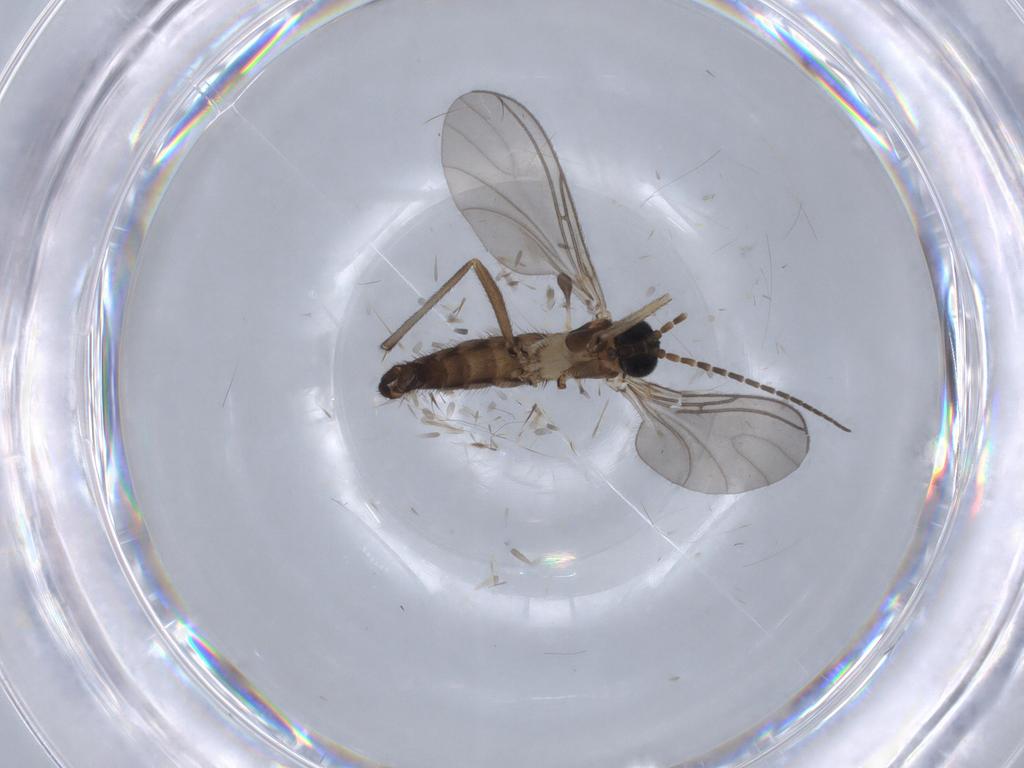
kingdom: Animalia
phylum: Arthropoda
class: Insecta
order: Diptera
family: Sciaridae
